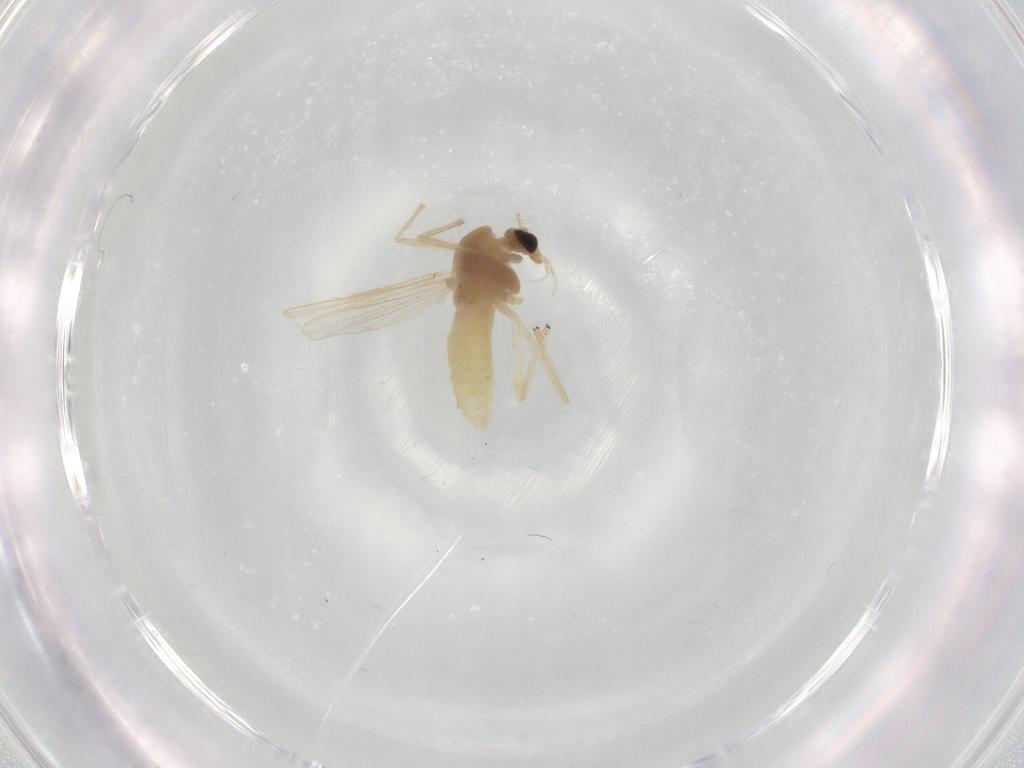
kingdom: Animalia
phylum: Arthropoda
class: Insecta
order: Diptera
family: Chironomidae
